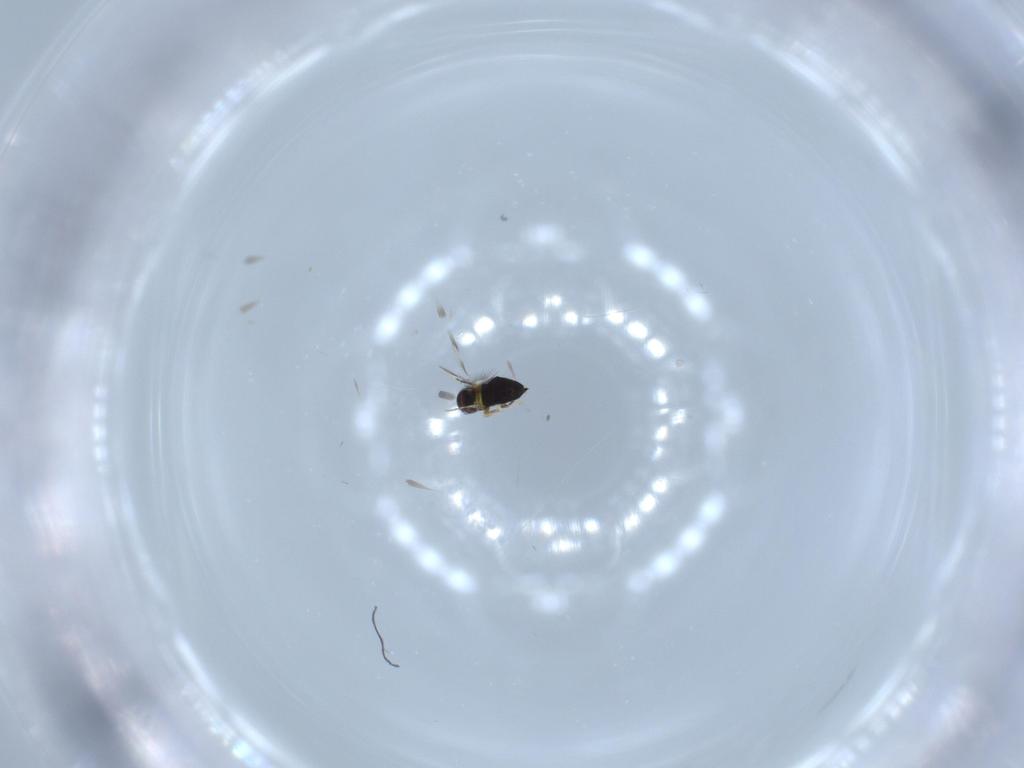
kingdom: Animalia
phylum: Arthropoda
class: Insecta
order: Hymenoptera
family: Signiphoridae
